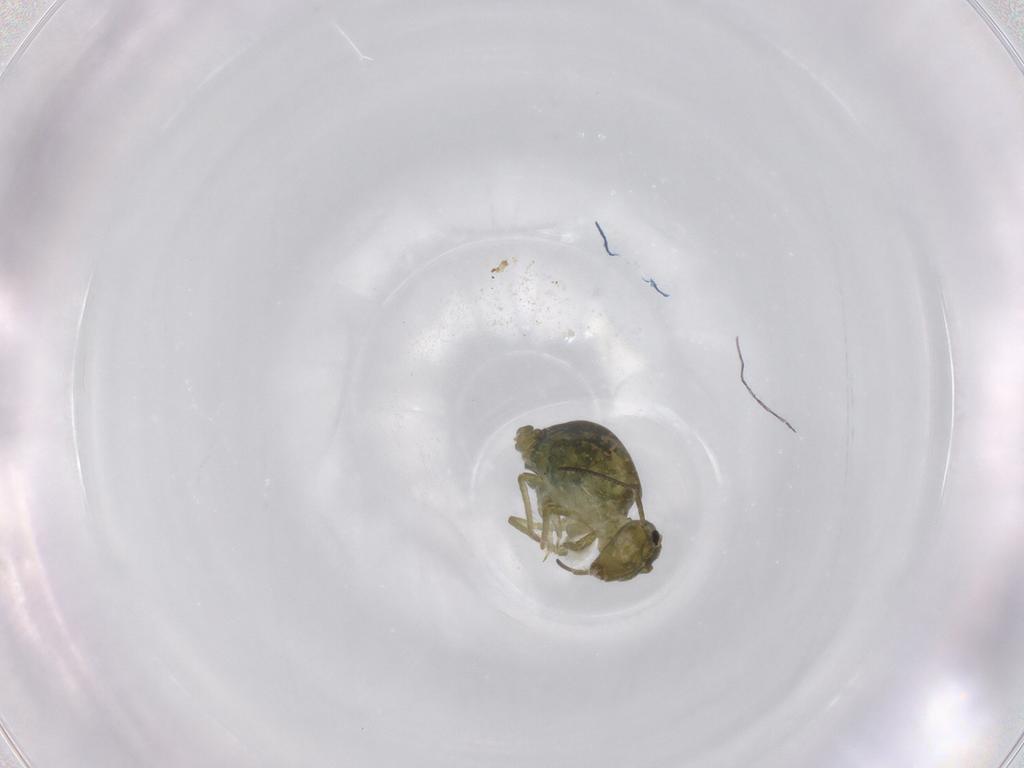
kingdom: Animalia
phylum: Arthropoda
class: Collembola
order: Symphypleona
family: Sminthuridae
